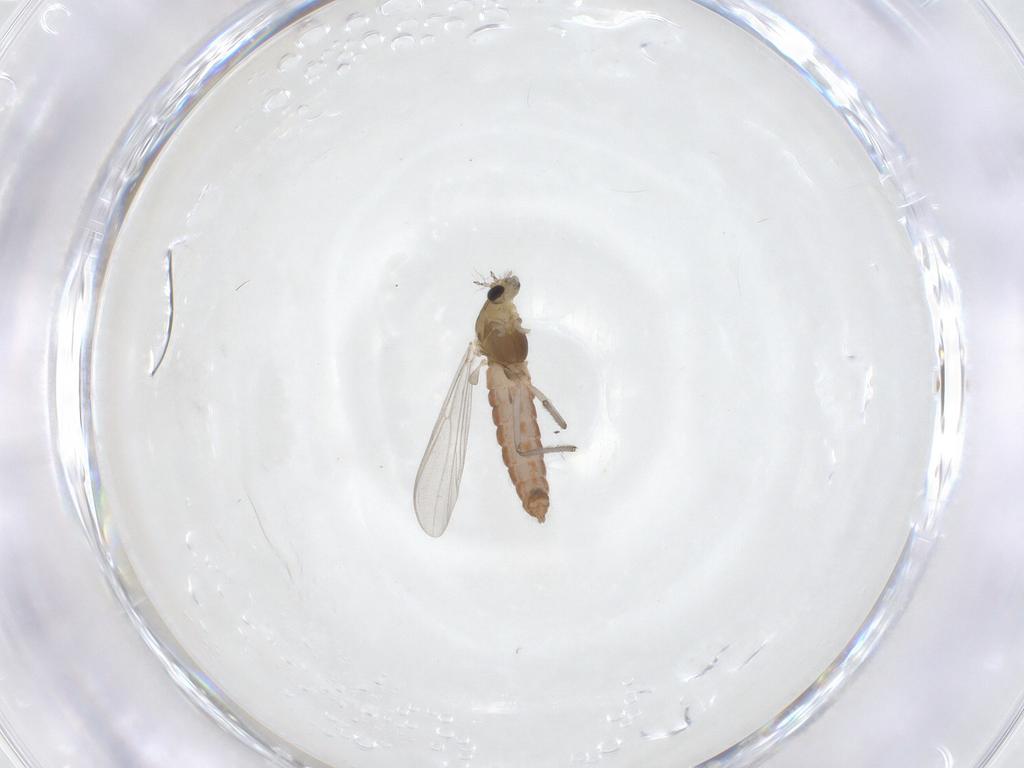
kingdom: Animalia
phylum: Arthropoda
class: Insecta
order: Diptera
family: Chironomidae
